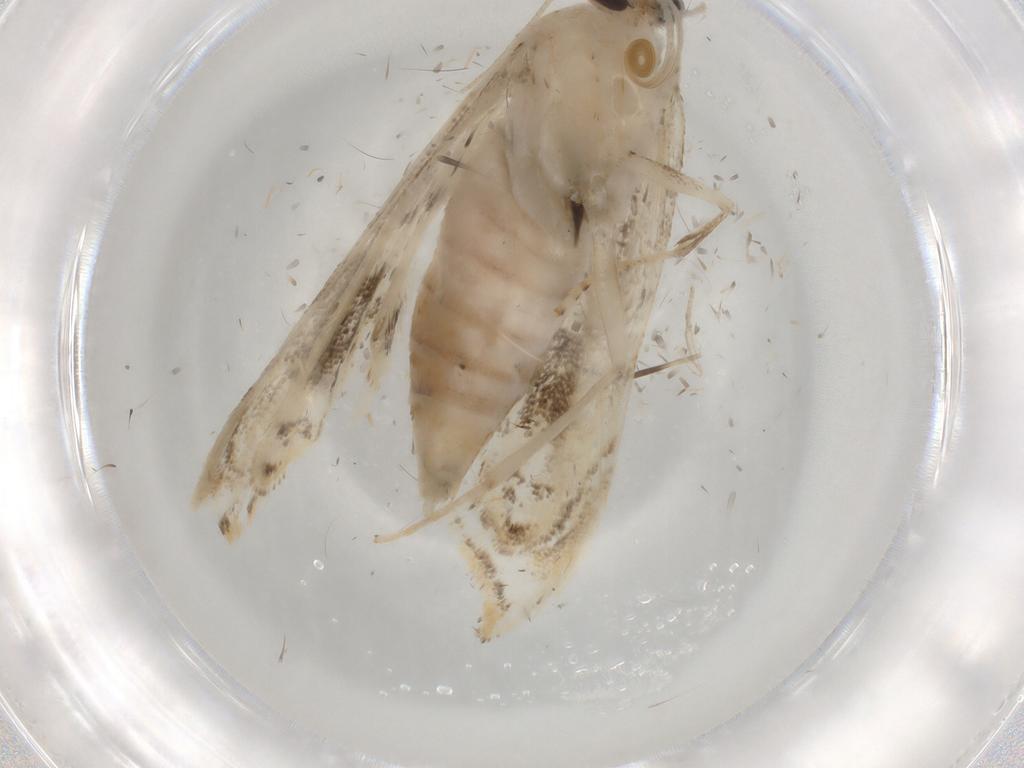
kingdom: Animalia
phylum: Arthropoda
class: Insecta
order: Lepidoptera
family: Crambidae
